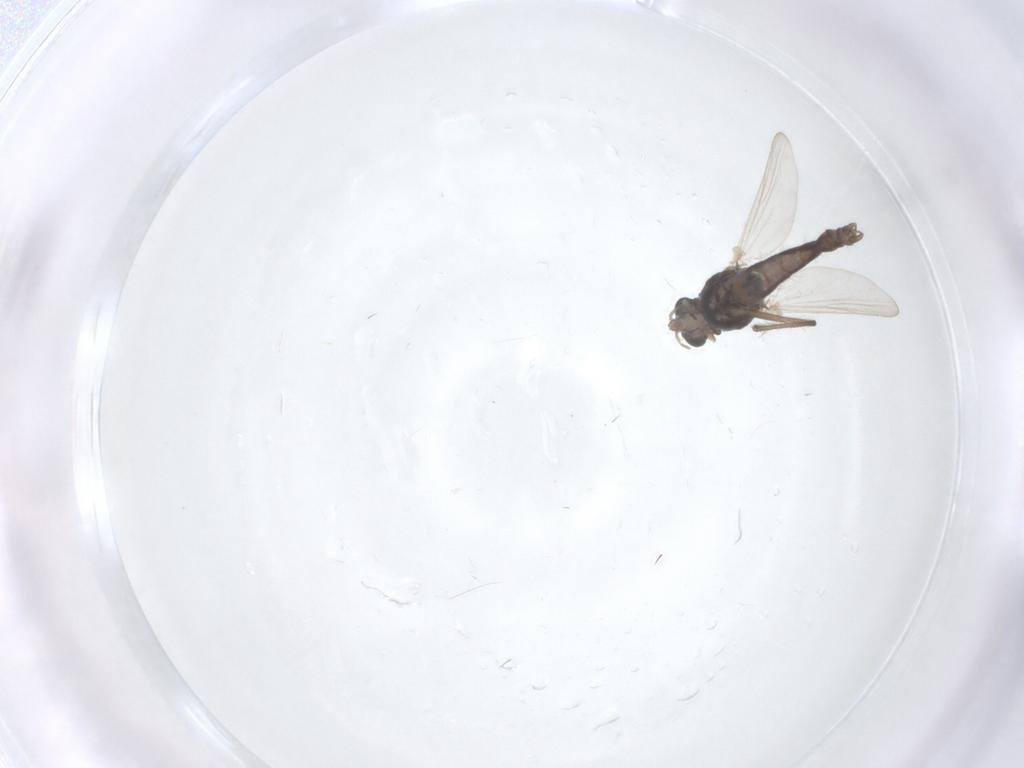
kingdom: Animalia
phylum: Arthropoda
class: Insecta
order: Diptera
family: Chironomidae
